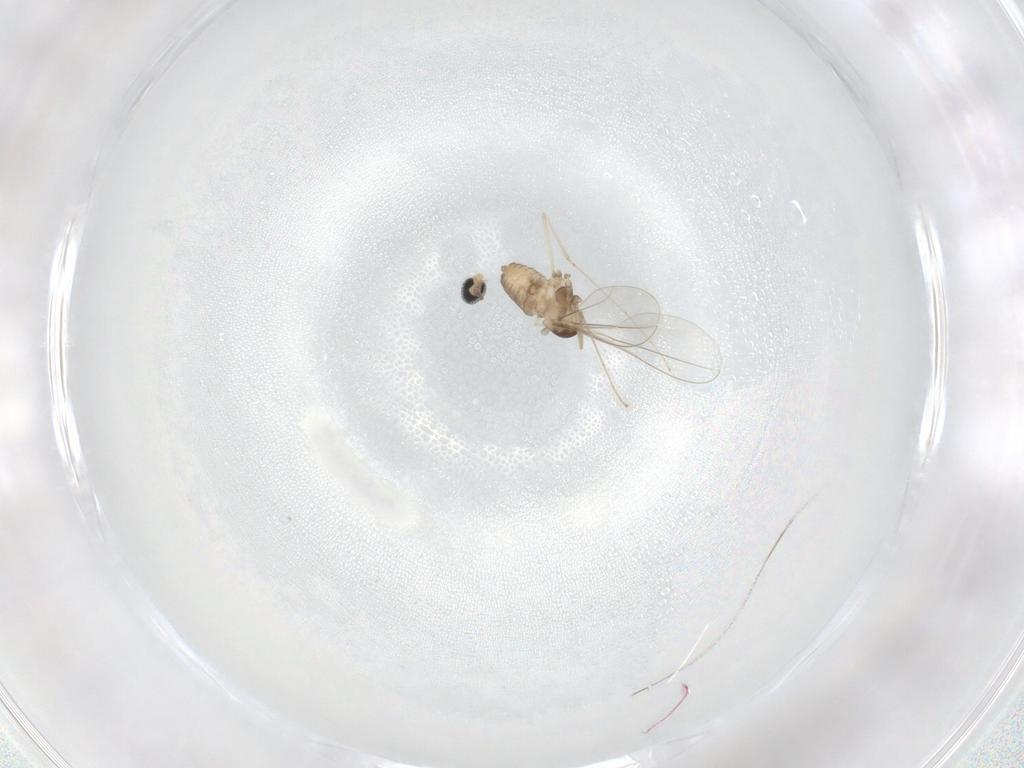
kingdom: Animalia
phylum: Arthropoda
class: Insecta
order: Diptera
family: Cecidomyiidae
